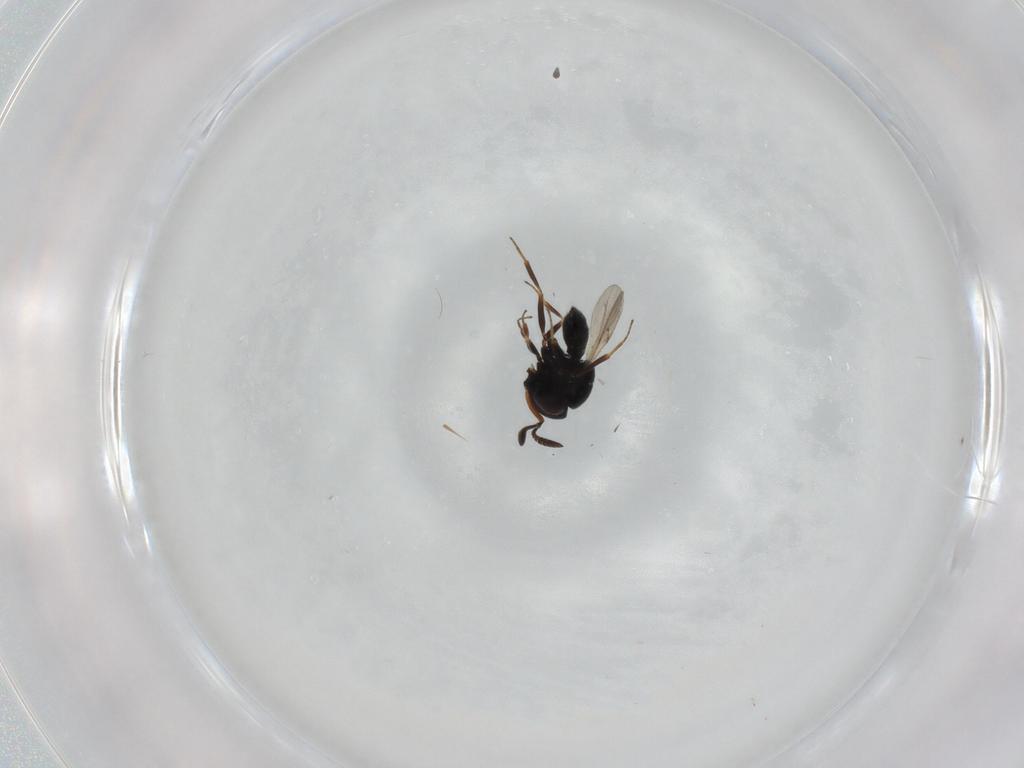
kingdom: Animalia
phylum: Arthropoda
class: Insecta
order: Hymenoptera
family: Scelionidae
